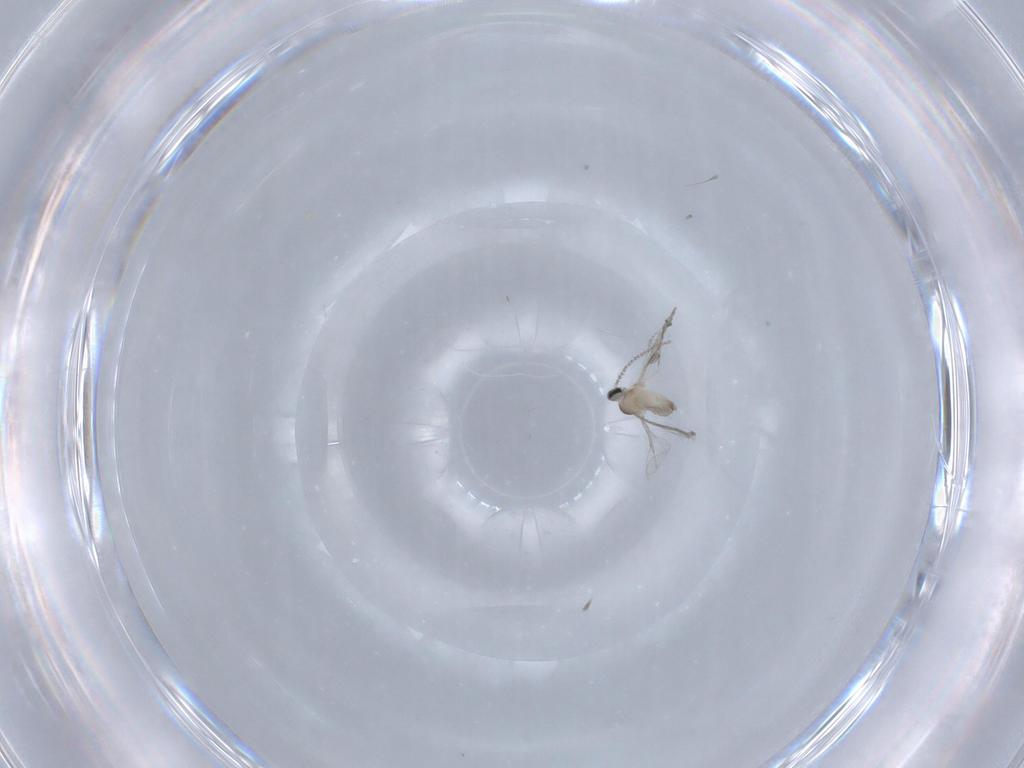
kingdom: Animalia
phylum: Arthropoda
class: Insecta
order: Diptera
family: Cecidomyiidae
